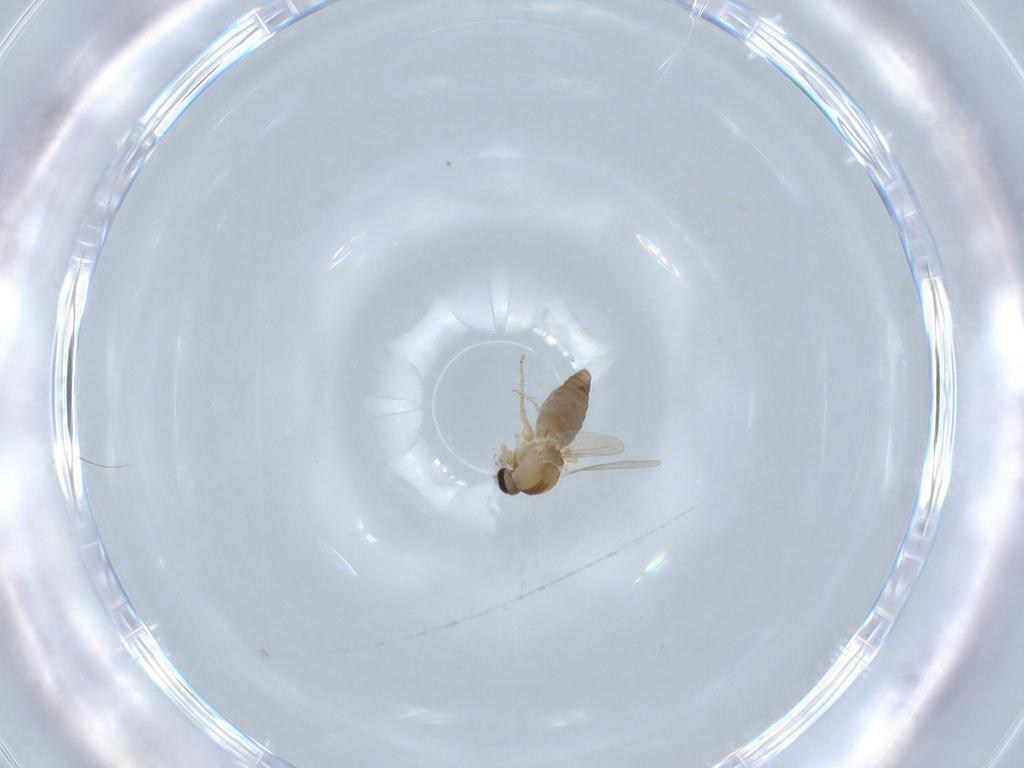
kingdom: Animalia
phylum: Arthropoda
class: Insecta
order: Diptera
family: Ceratopogonidae
